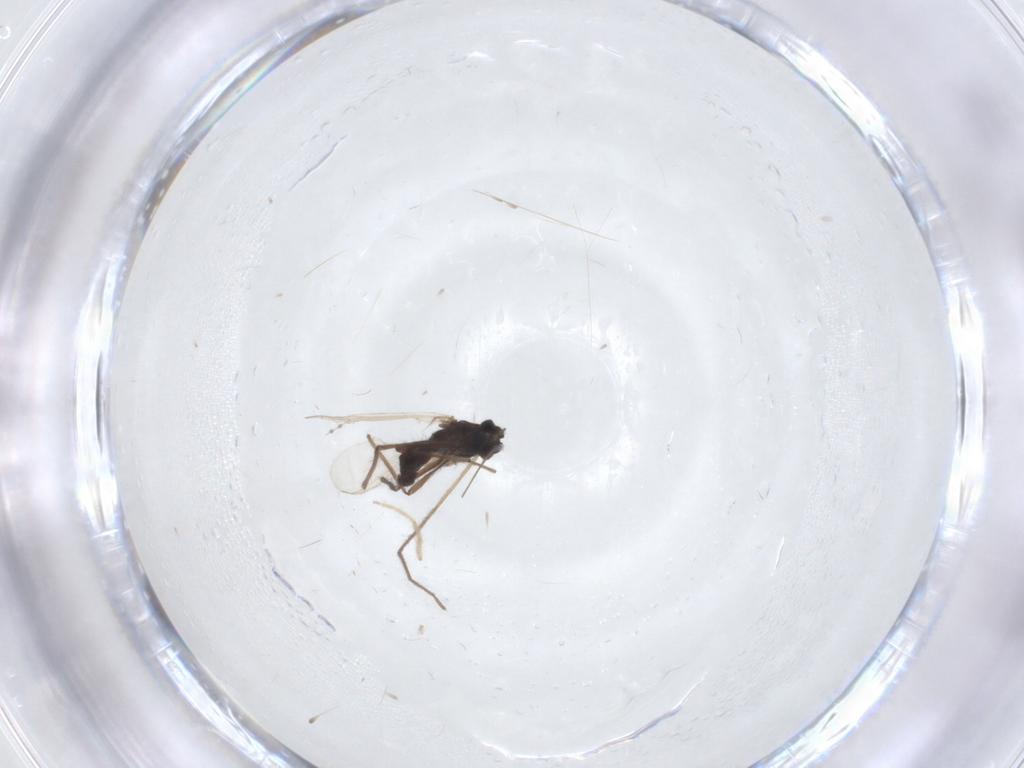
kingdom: Animalia
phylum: Arthropoda
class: Insecta
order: Diptera
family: Chironomidae
